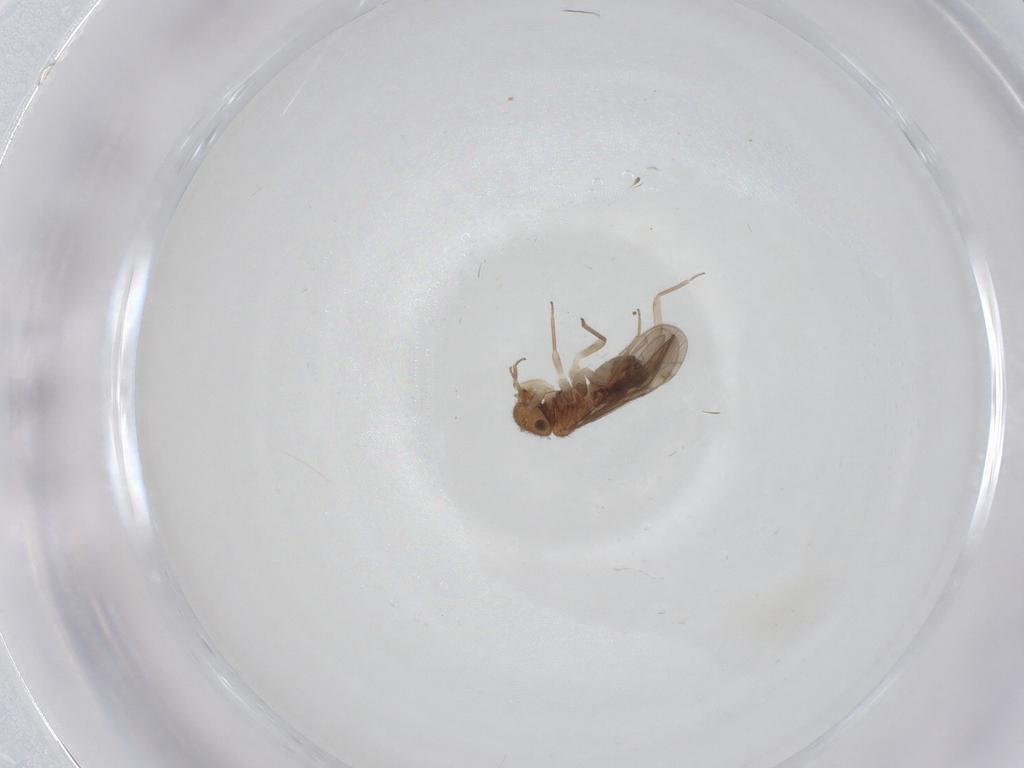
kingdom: Animalia
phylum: Arthropoda
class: Insecta
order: Psocodea
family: Ectopsocidae
